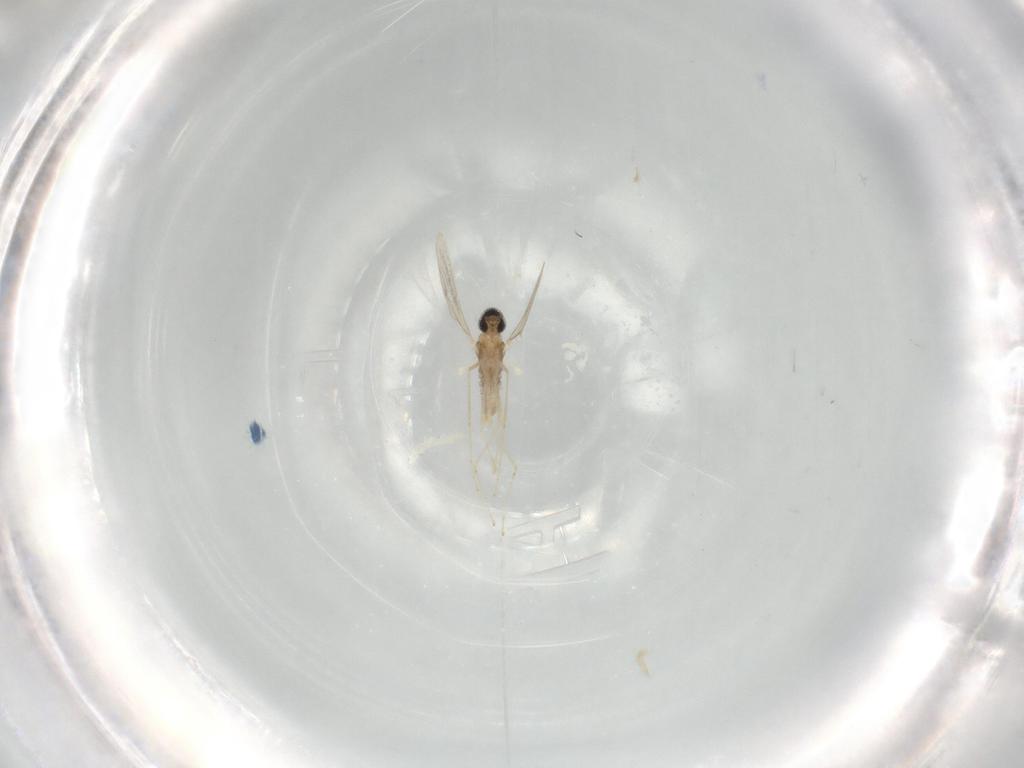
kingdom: Animalia
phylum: Arthropoda
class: Insecta
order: Diptera
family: Cecidomyiidae
